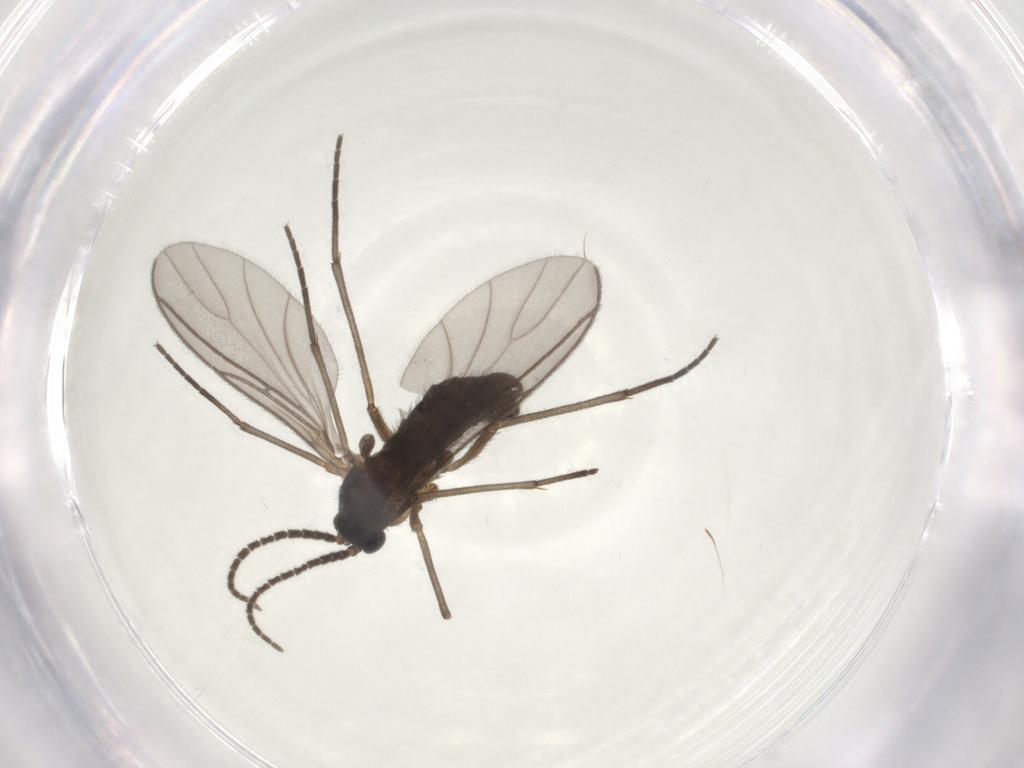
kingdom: Animalia
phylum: Arthropoda
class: Insecta
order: Diptera
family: Sciaridae
